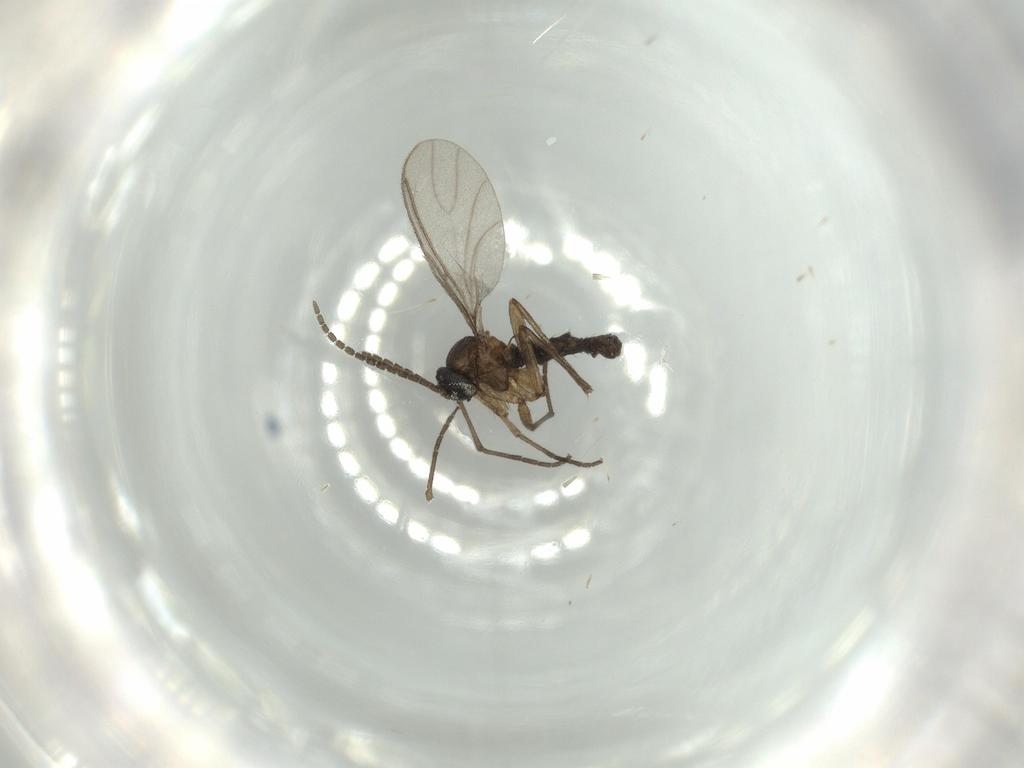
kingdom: Animalia
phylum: Arthropoda
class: Insecta
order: Diptera
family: Sciaridae
